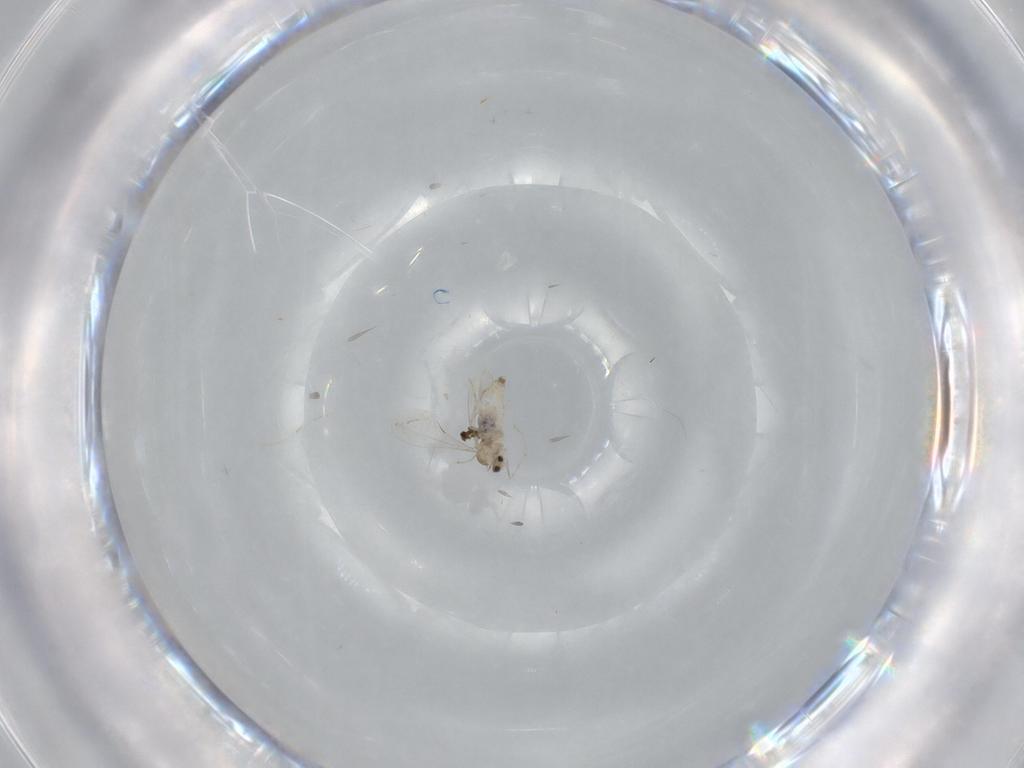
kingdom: Animalia
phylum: Arthropoda
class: Insecta
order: Diptera
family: Cecidomyiidae
